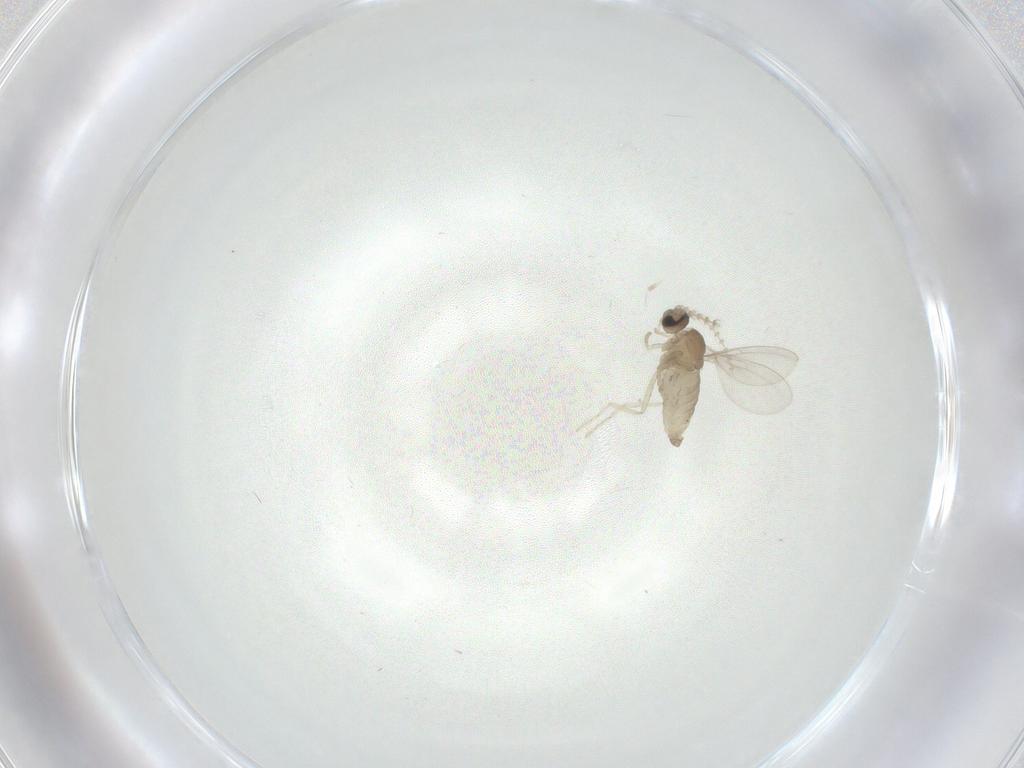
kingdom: Animalia
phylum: Arthropoda
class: Insecta
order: Diptera
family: Cecidomyiidae
